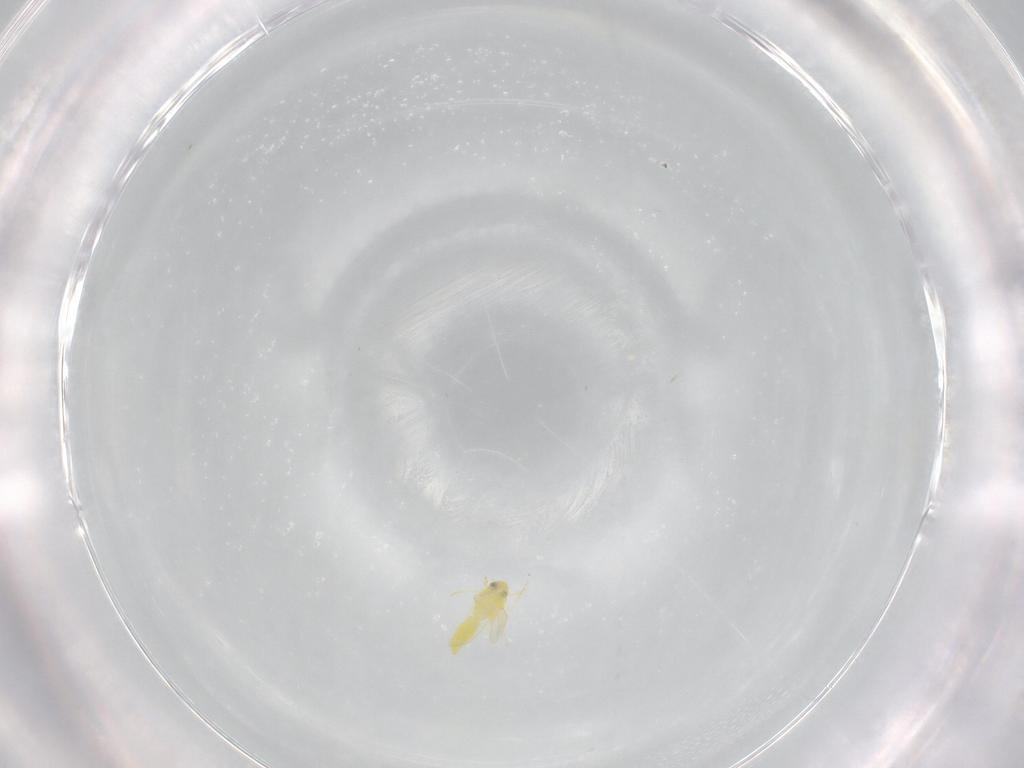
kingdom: Animalia
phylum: Arthropoda
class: Insecta
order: Hemiptera
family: Cicadellidae
